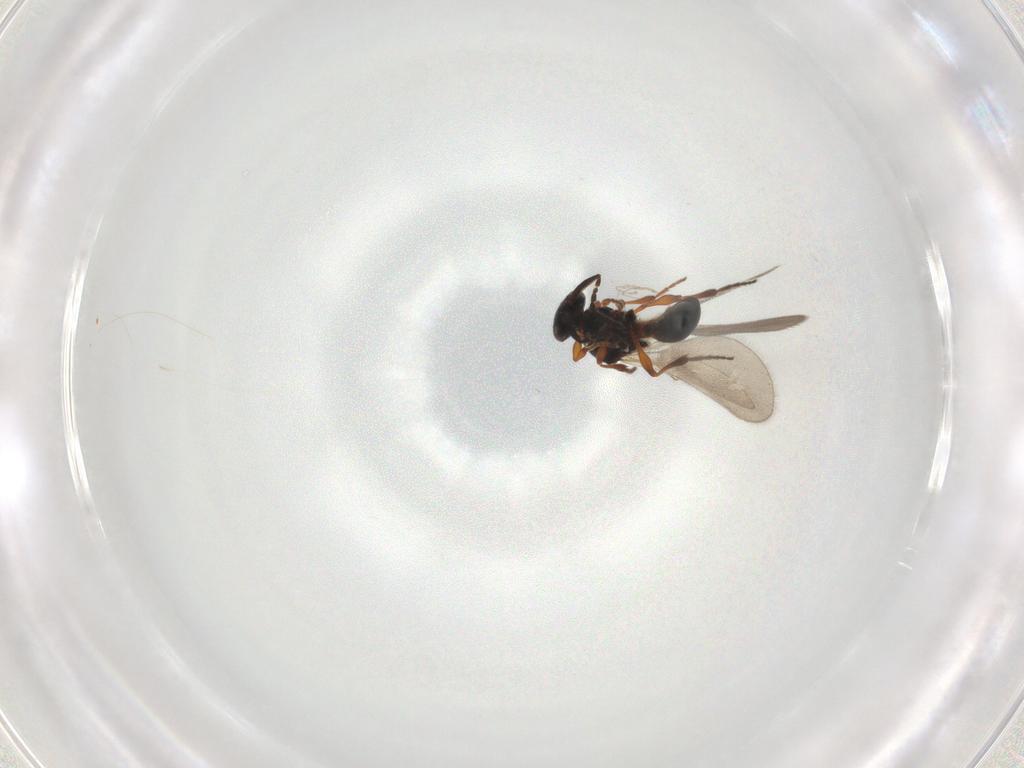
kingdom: Animalia
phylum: Arthropoda
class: Insecta
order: Hymenoptera
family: Platygastridae
